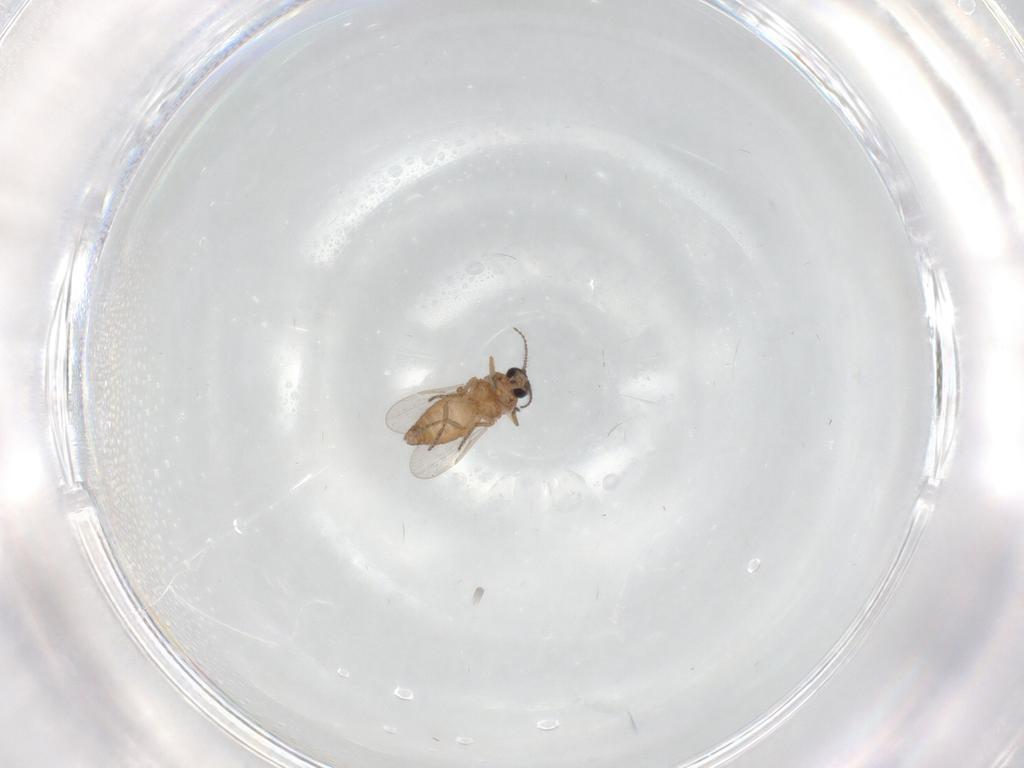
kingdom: Animalia
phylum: Arthropoda
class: Insecta
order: Diptera
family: Ceratopogonidae
